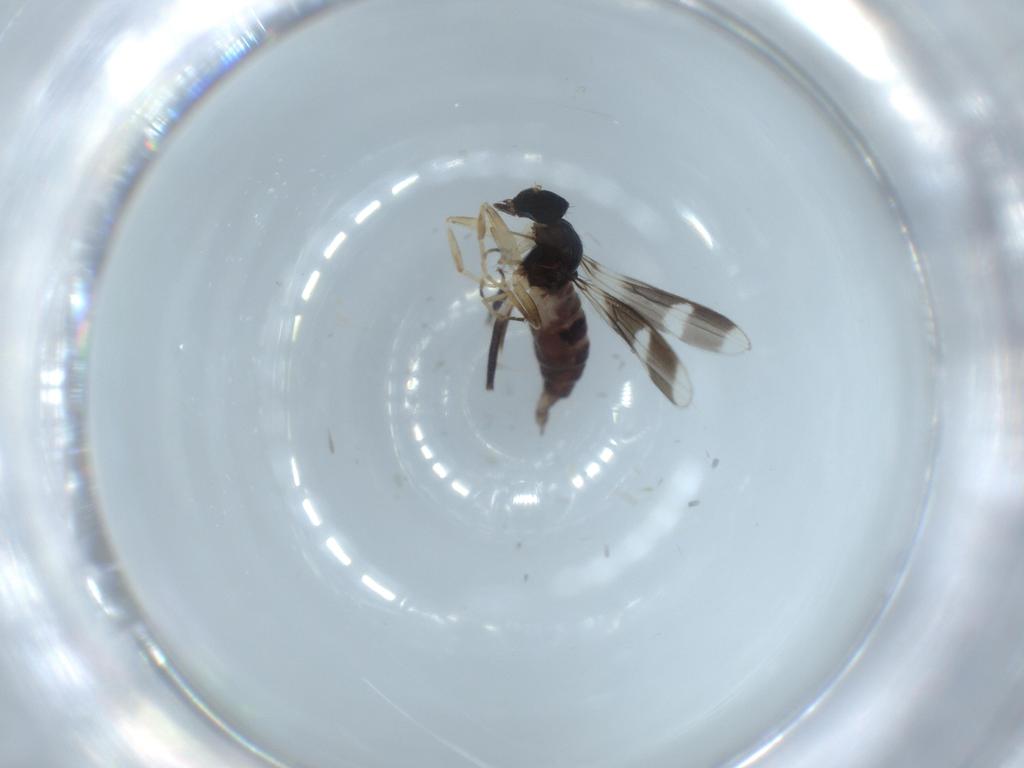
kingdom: Animalia
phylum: Arthropoda
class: Insecta
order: Diptera
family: Hybotidae
